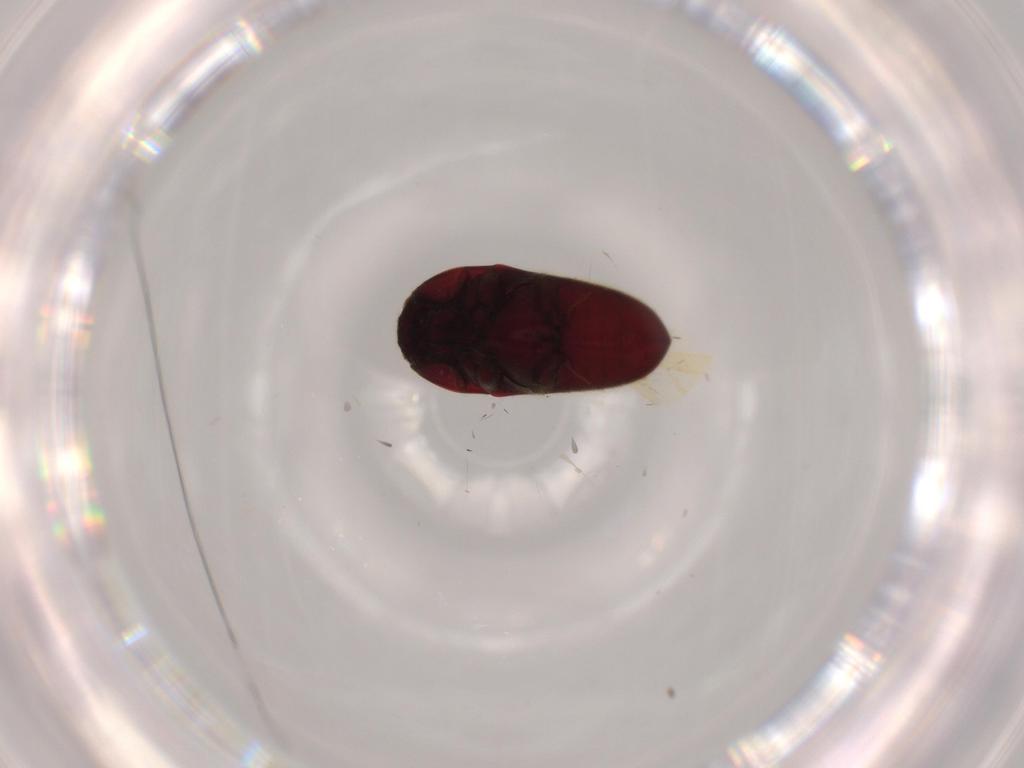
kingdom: Animalia
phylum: Arthropoda
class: Insecta
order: Coleoptera
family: Throscidae
